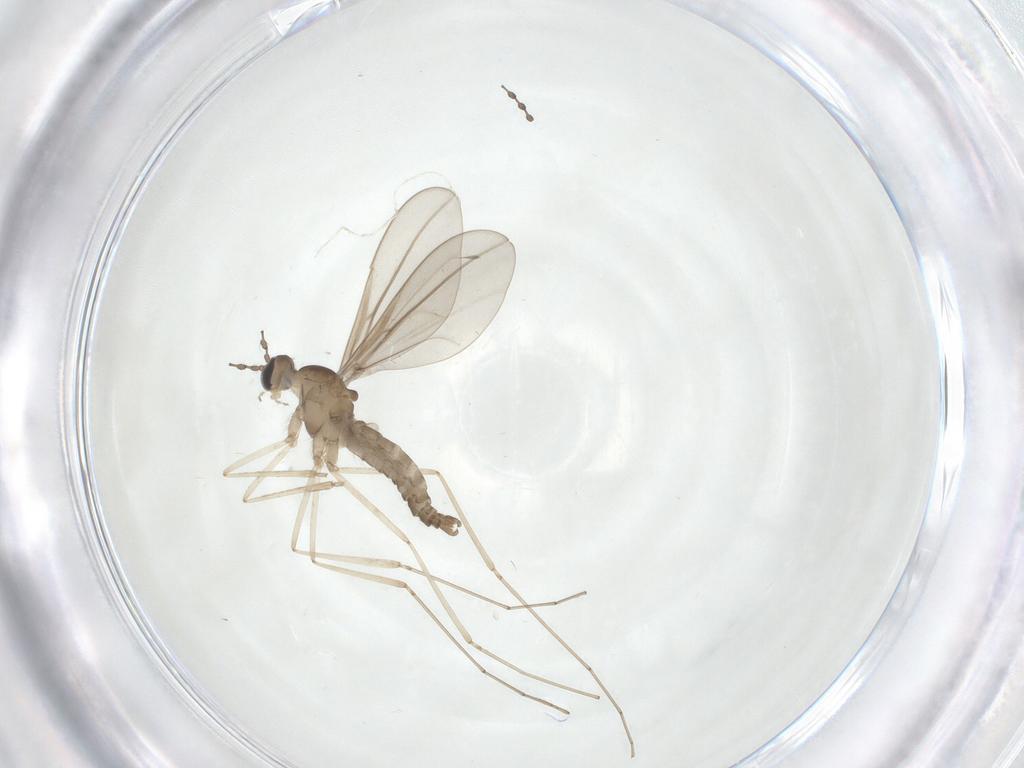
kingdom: Animalia
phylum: Arthropoda
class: Insecta
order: Diptera
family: Cecidomyiidae
